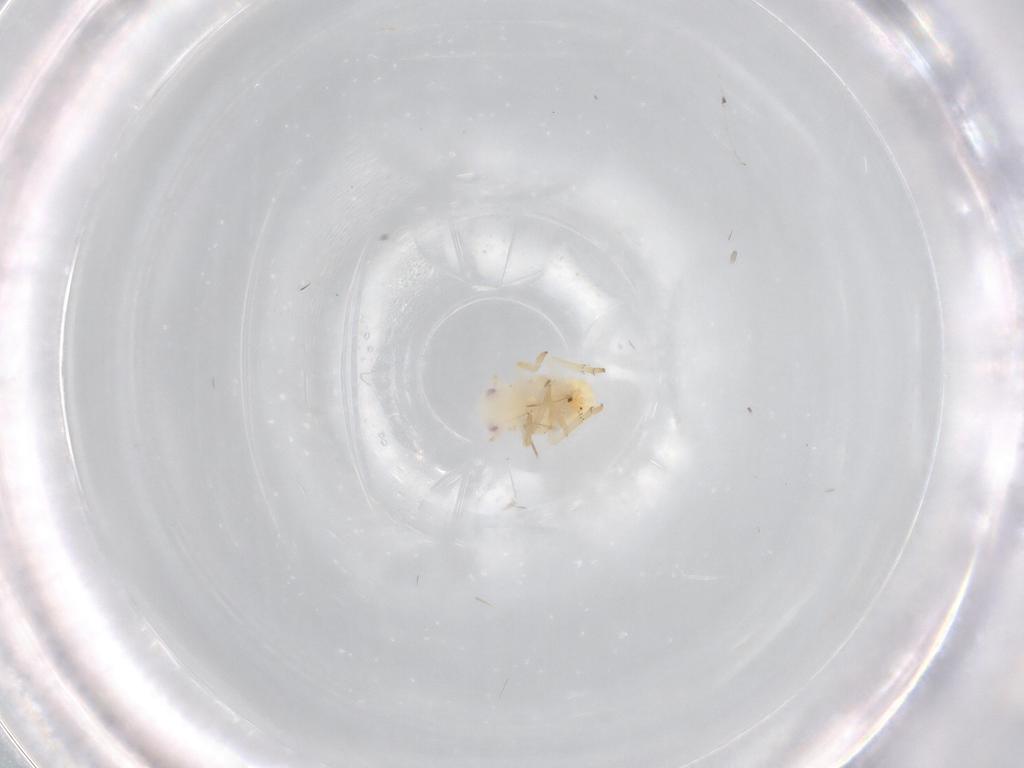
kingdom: Animalia
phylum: Arthropoda
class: Insecta
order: Hemiptera
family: Flatidae
